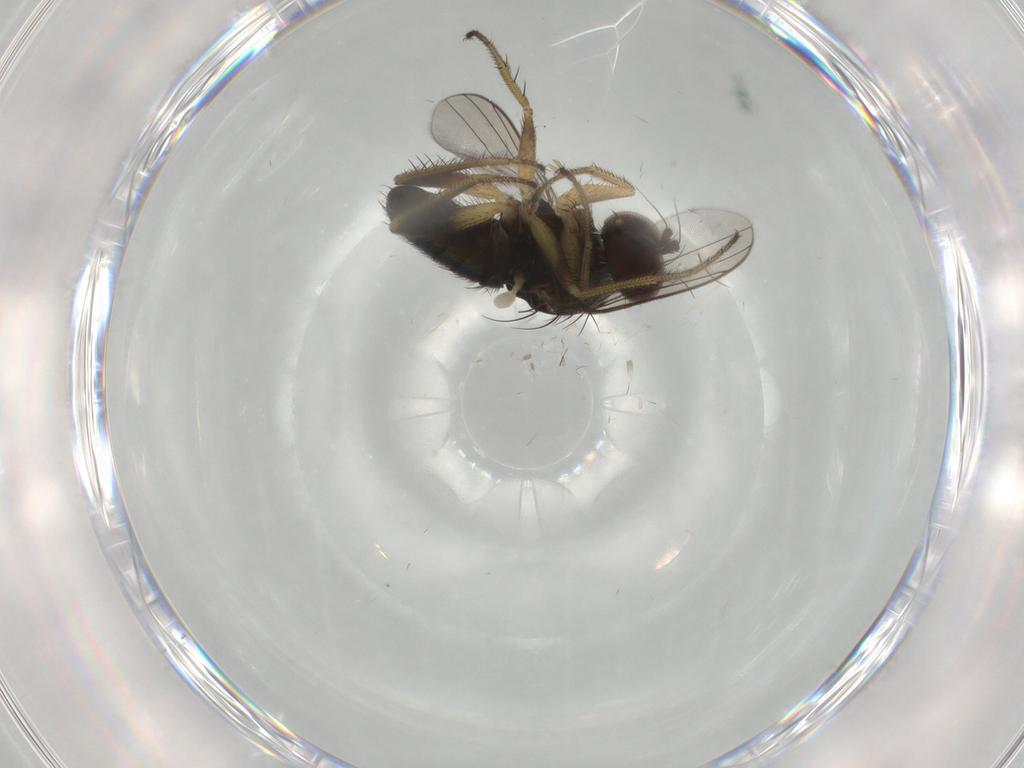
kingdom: Animalia
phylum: Arthropoda
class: Insecta
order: Diptera
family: Dolichopodidae
